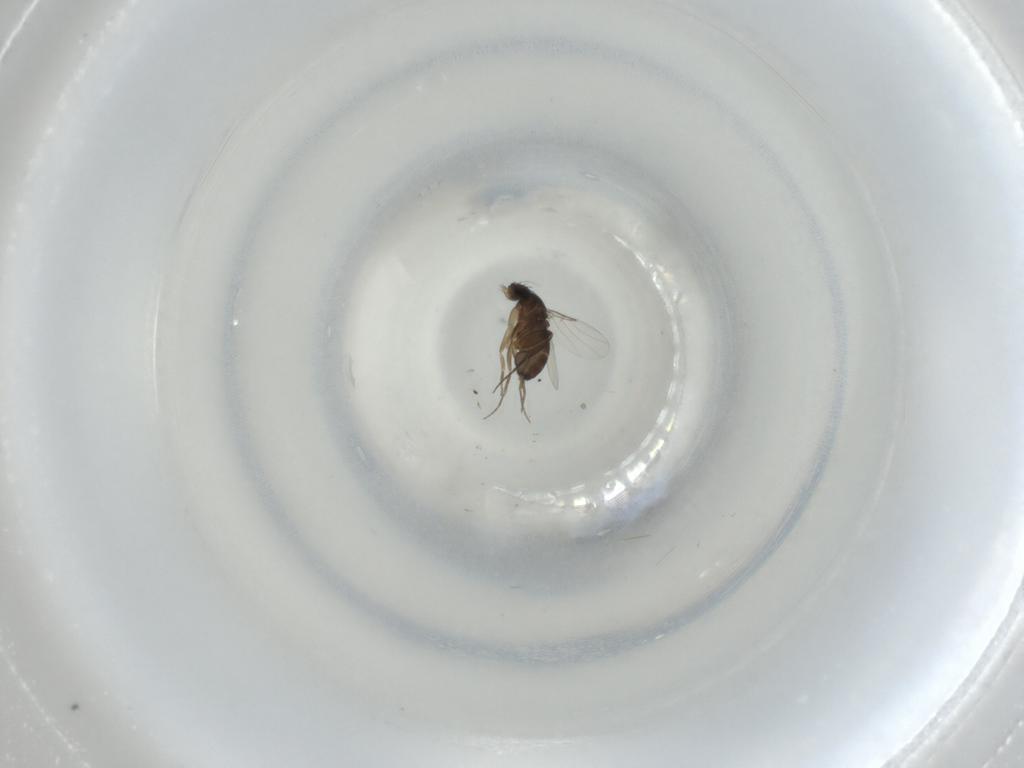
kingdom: Animalia
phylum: Arthropoda
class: Insecta
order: Diptera
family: Phoridae
